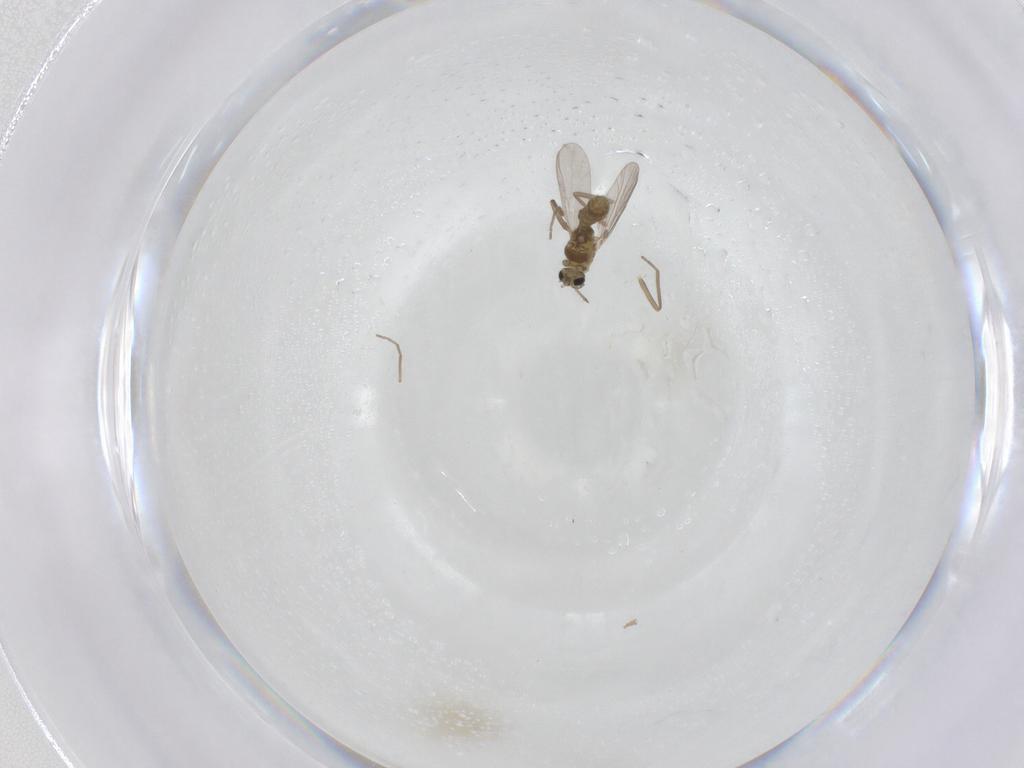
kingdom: Animalia
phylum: Arthropoda
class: Insecta
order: Diptera
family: Chironomidae
